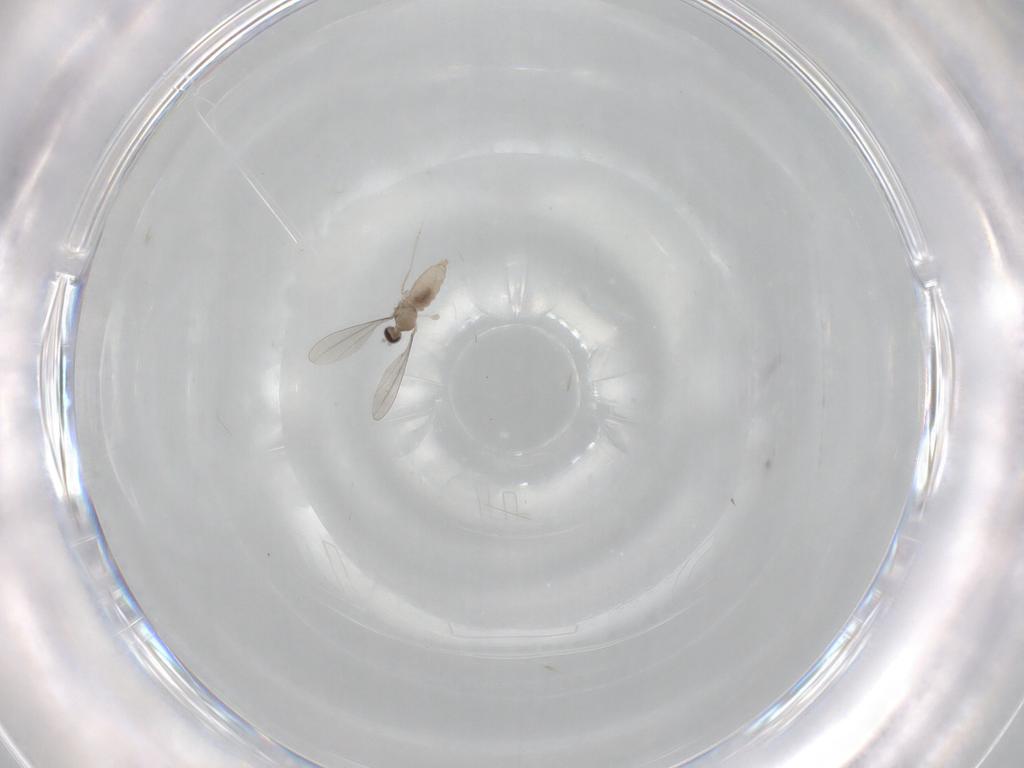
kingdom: Animalia
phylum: Arthropoda
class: Insecta
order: Diptera
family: Cecidomyiidae
